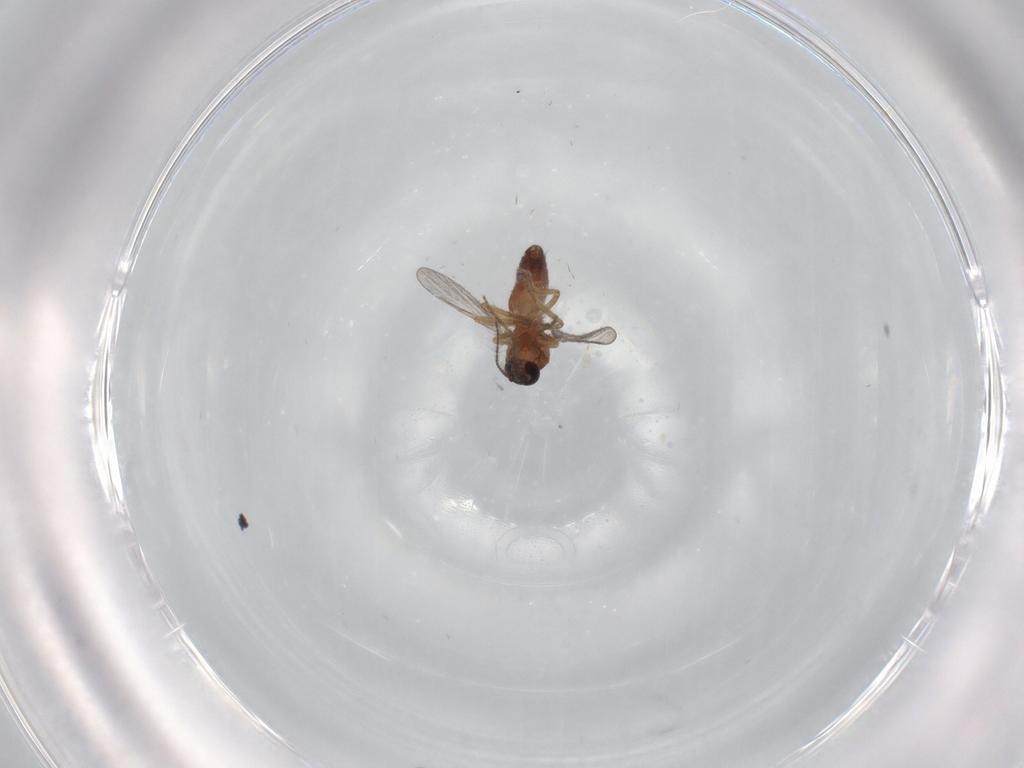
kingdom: Animalia
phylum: Arthropoda
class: Insecta
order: Diptera
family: Ceratopogonidae
